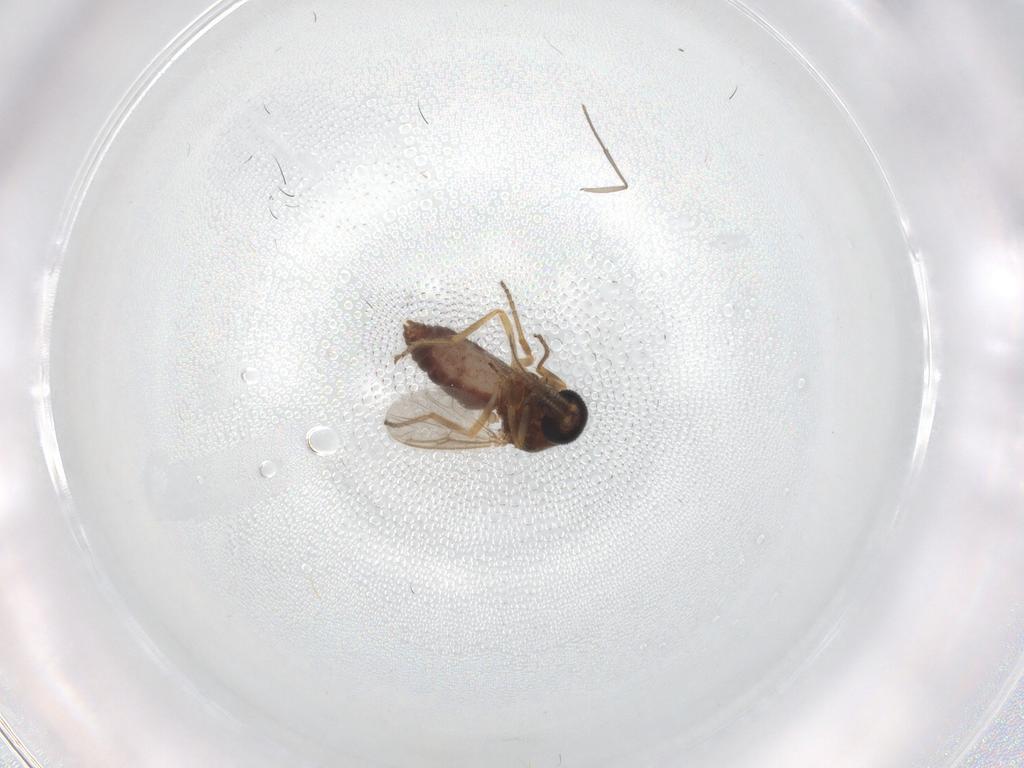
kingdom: Animalia
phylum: Arthropoda
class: Insecta
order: Diptera
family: Ceratopogonidae
